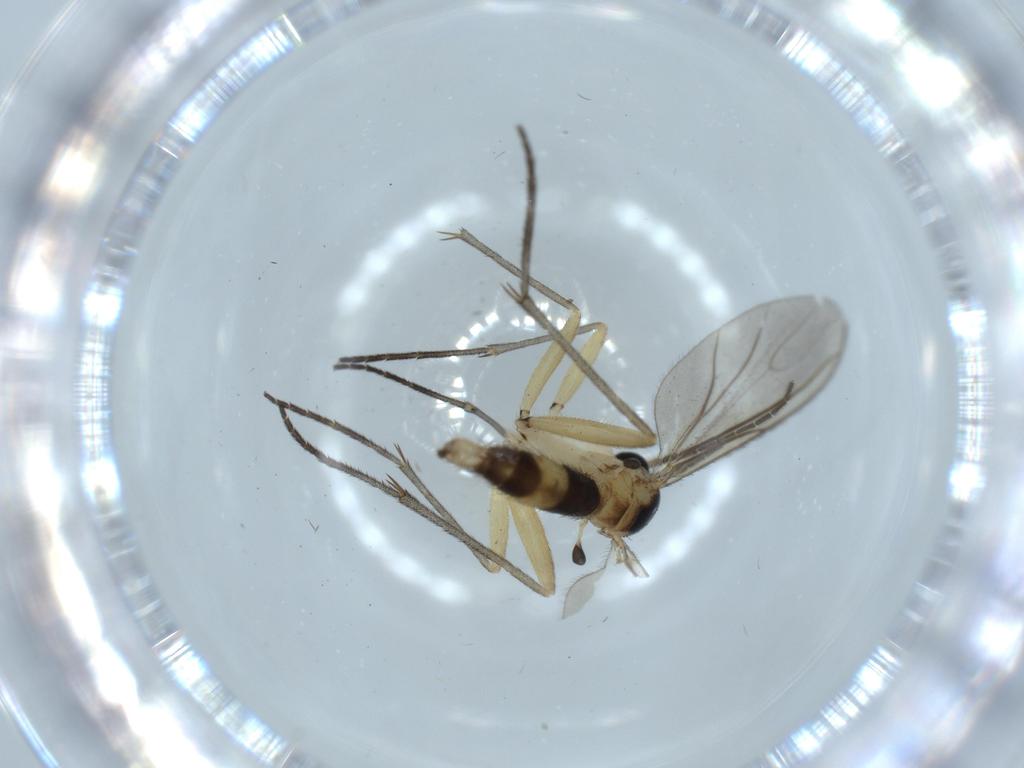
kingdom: Animalia
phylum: Arthropoda
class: Insecta
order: Diptera
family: Sciaridae
